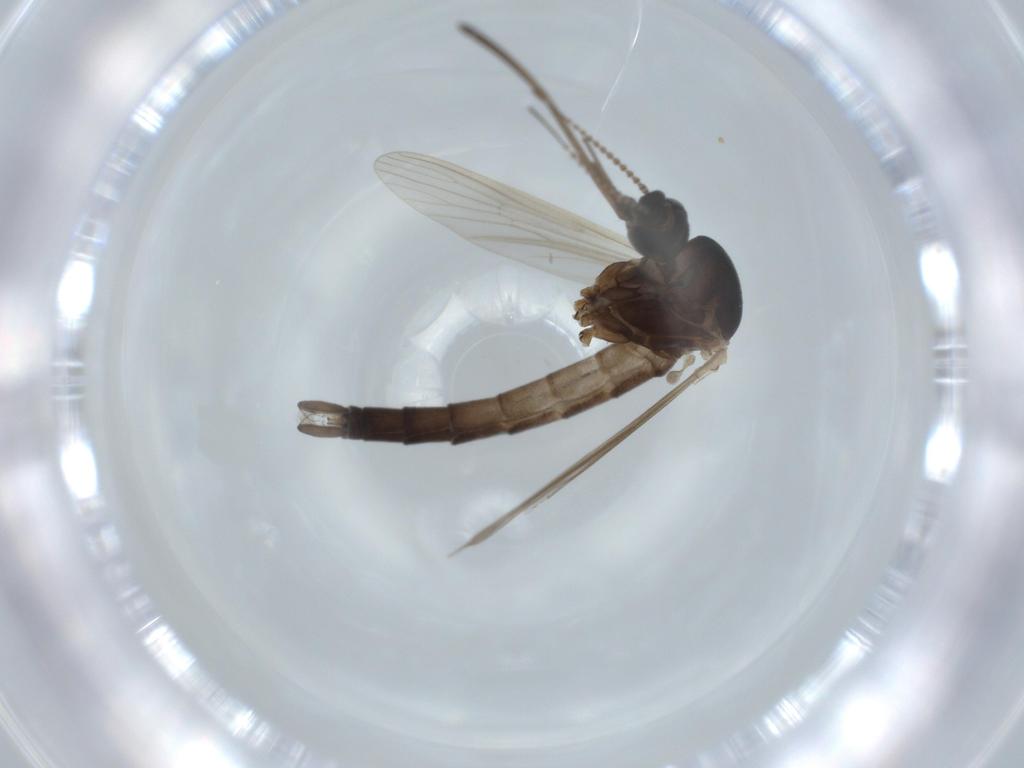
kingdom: Animalia
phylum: Arthropoda
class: Insecta
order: Diptera
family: Chironomidae
